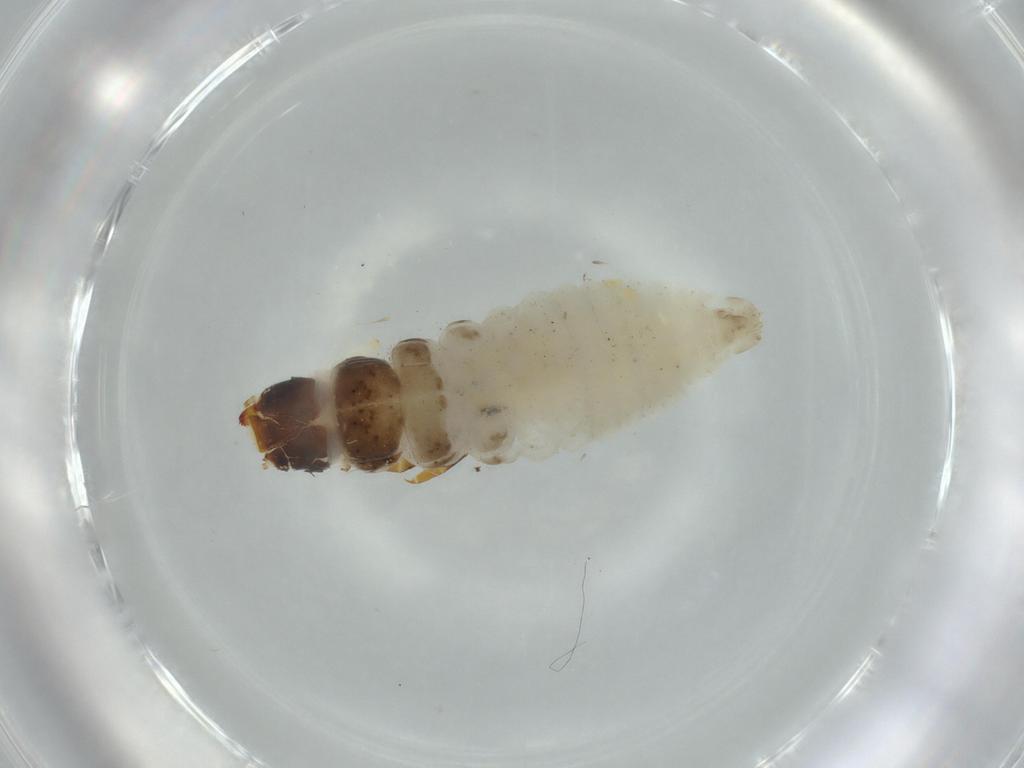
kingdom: Animalia
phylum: Arthropoda
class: Insecta
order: Lepidoptera
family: Psychidae
